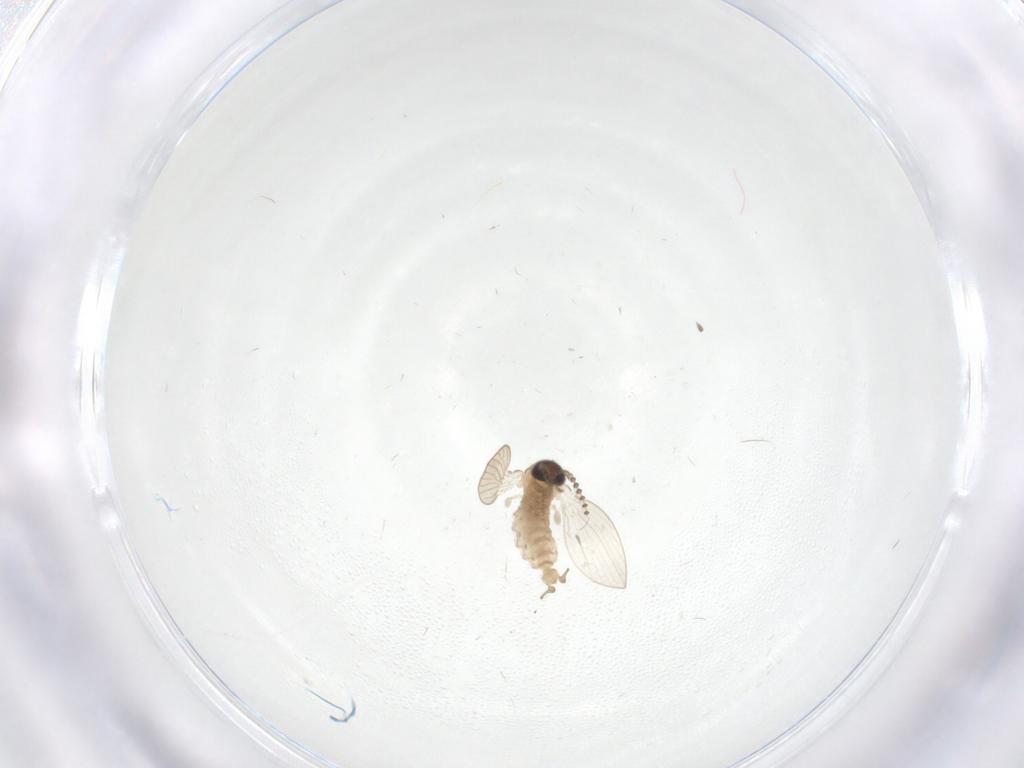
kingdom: Animalia
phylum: Arthropoda
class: Insecta
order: Diptera
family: Psychodidae
